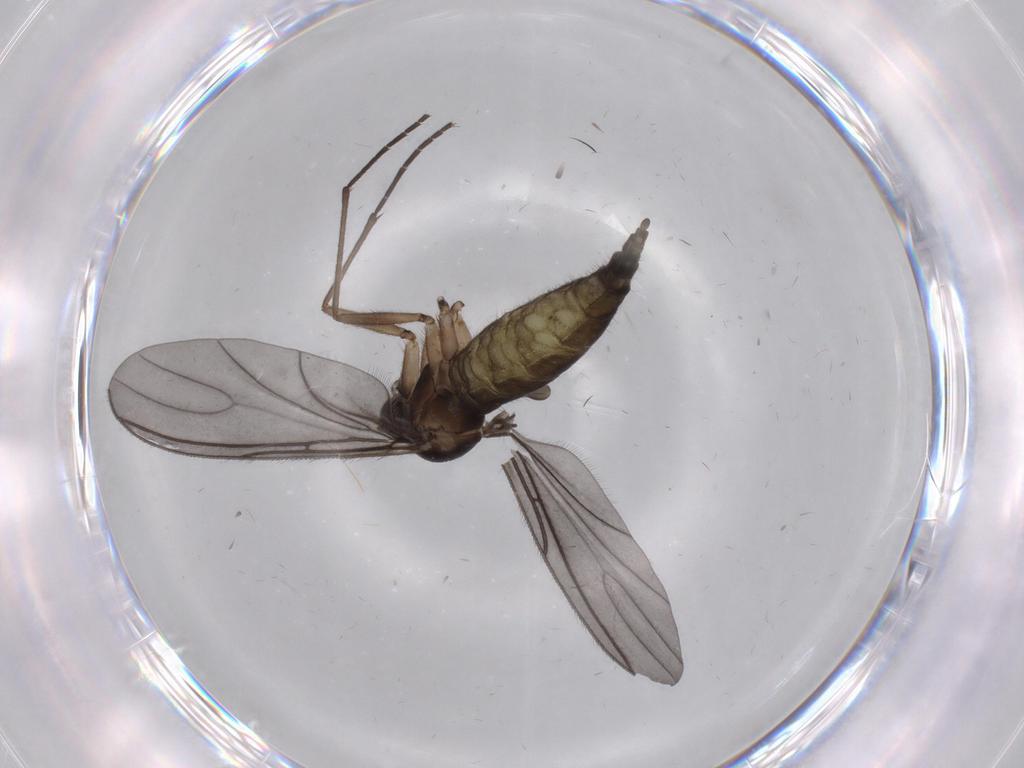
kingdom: Animalia
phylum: Arthropoda
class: Insecta
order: Diptera
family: Sciaridae
